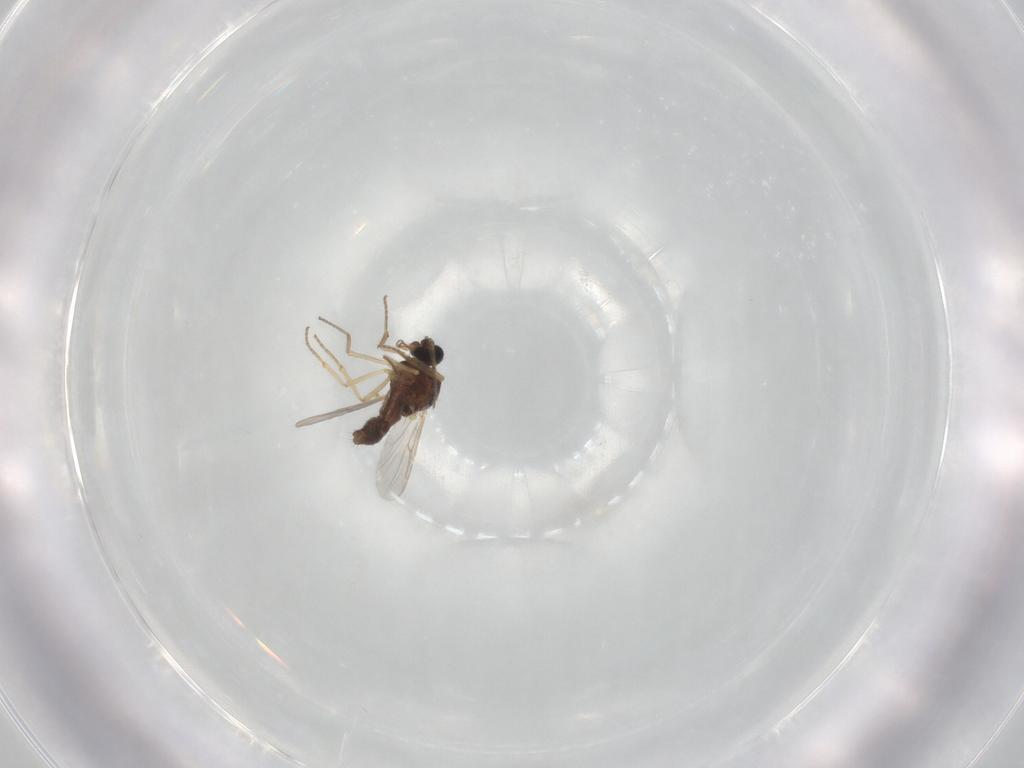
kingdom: Animalia
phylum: Arthropoda
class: Insecta
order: Diptera
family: Ceratopogonidae
